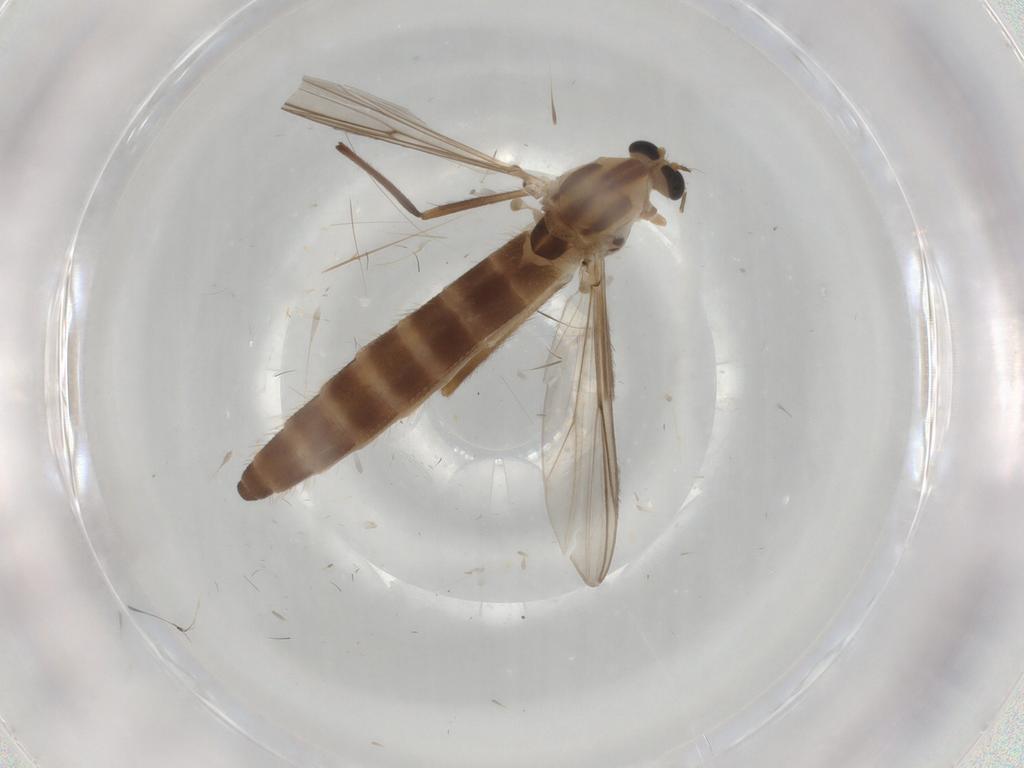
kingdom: Animalia
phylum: Arthropoda
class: Insecta
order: Diptera
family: Chironomidae
